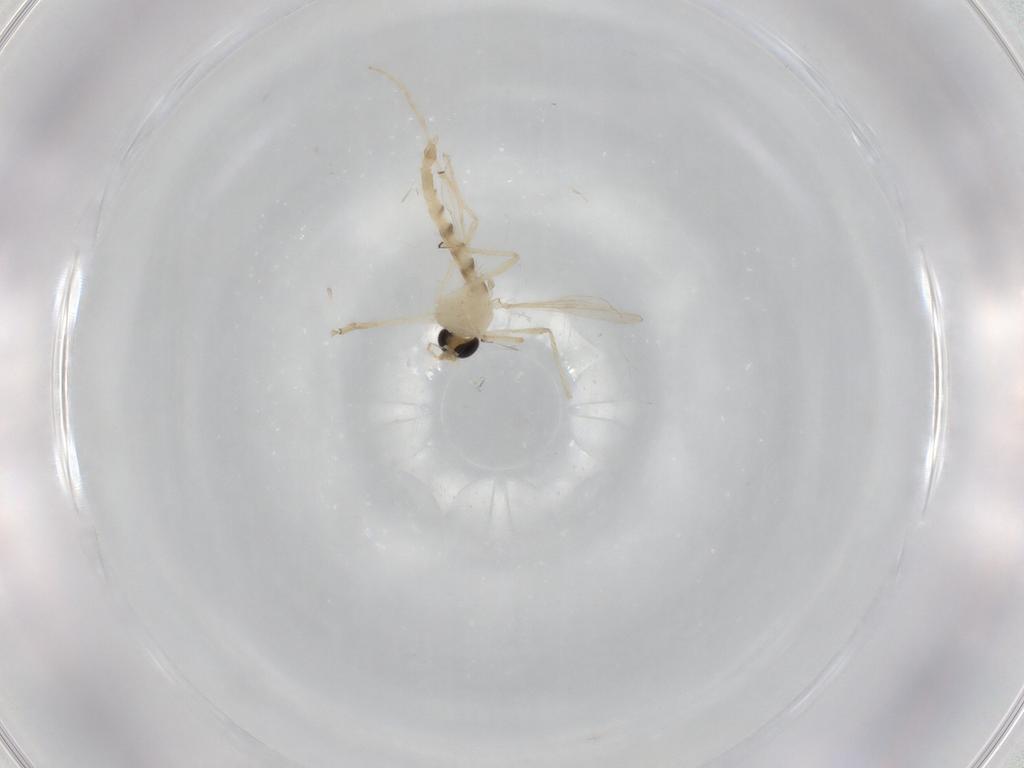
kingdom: Animalia
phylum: Arthropoda
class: Insecta
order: Diptera
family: Chironomidae
